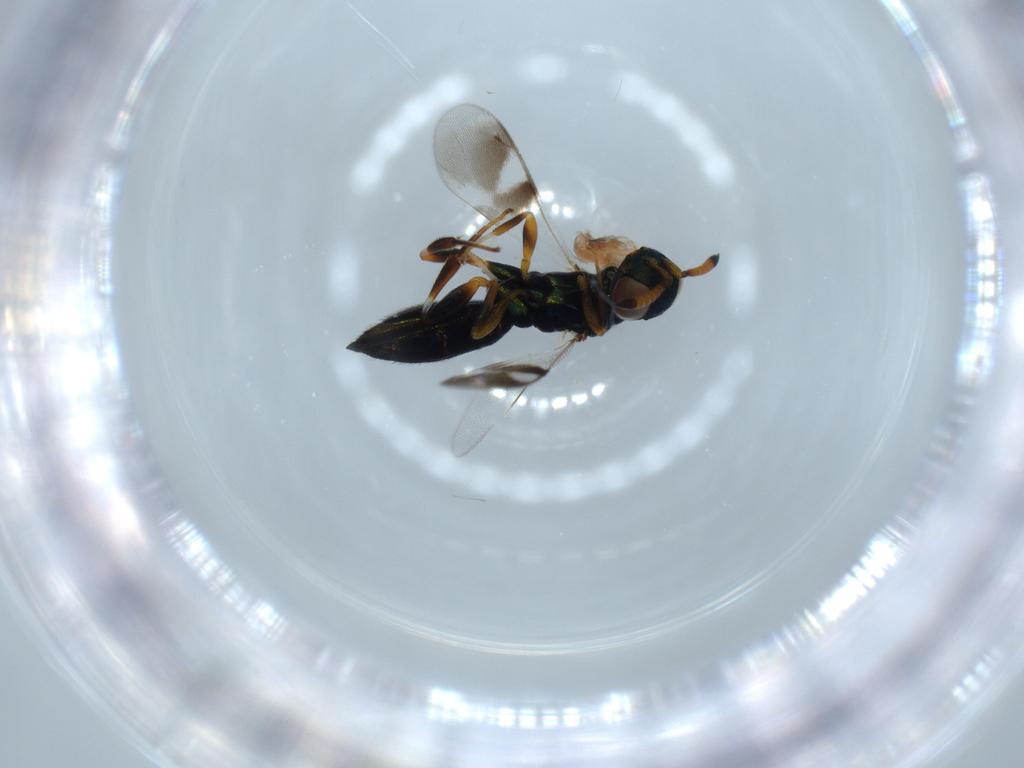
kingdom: Animalia
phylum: Arthropoda
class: Insecta
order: Hymenoptera
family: Cleonyminae
